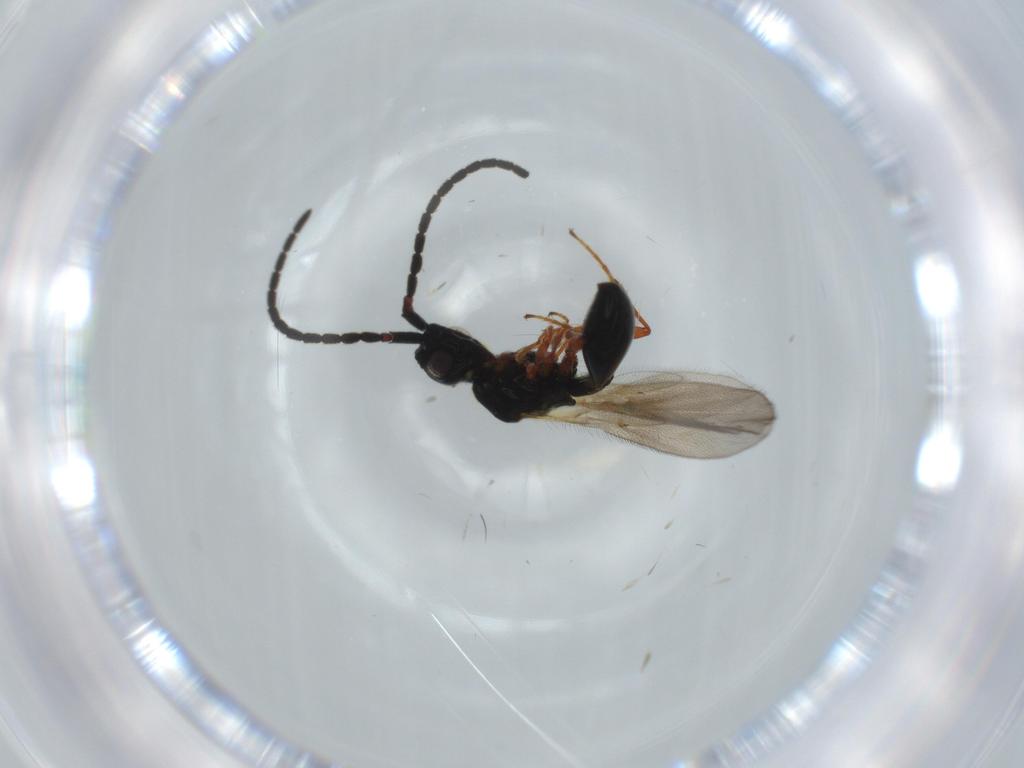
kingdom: Animalia
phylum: Arthropoda
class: Insecta
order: Hymenoptera
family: Diapriidae
